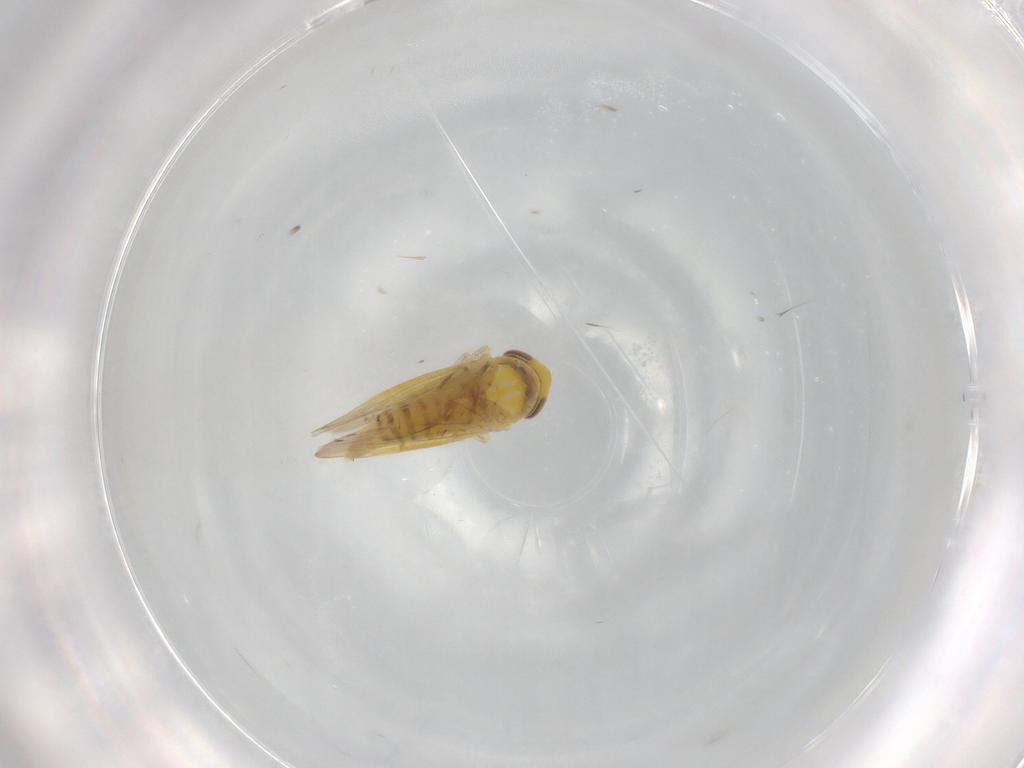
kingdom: Animalia
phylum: Arthropoda
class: Insecta
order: Hemiptera
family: Cicadellidae
